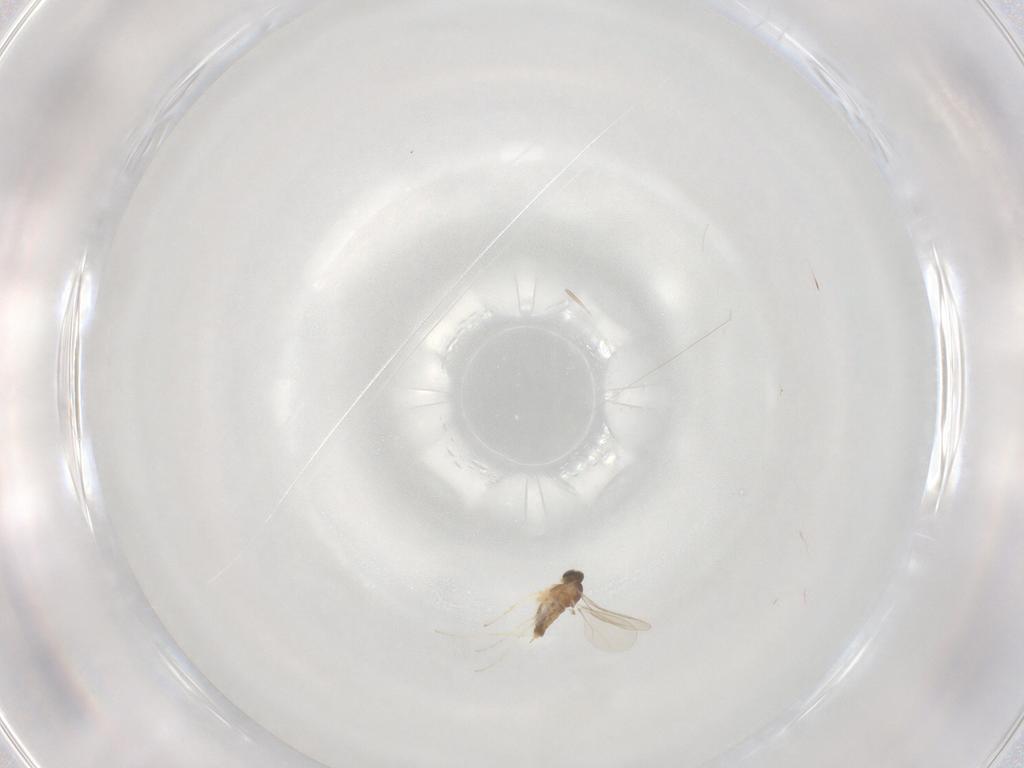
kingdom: Animalia
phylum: Arthropoda
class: Insecta
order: Diptera
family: Cecidomyiidae
